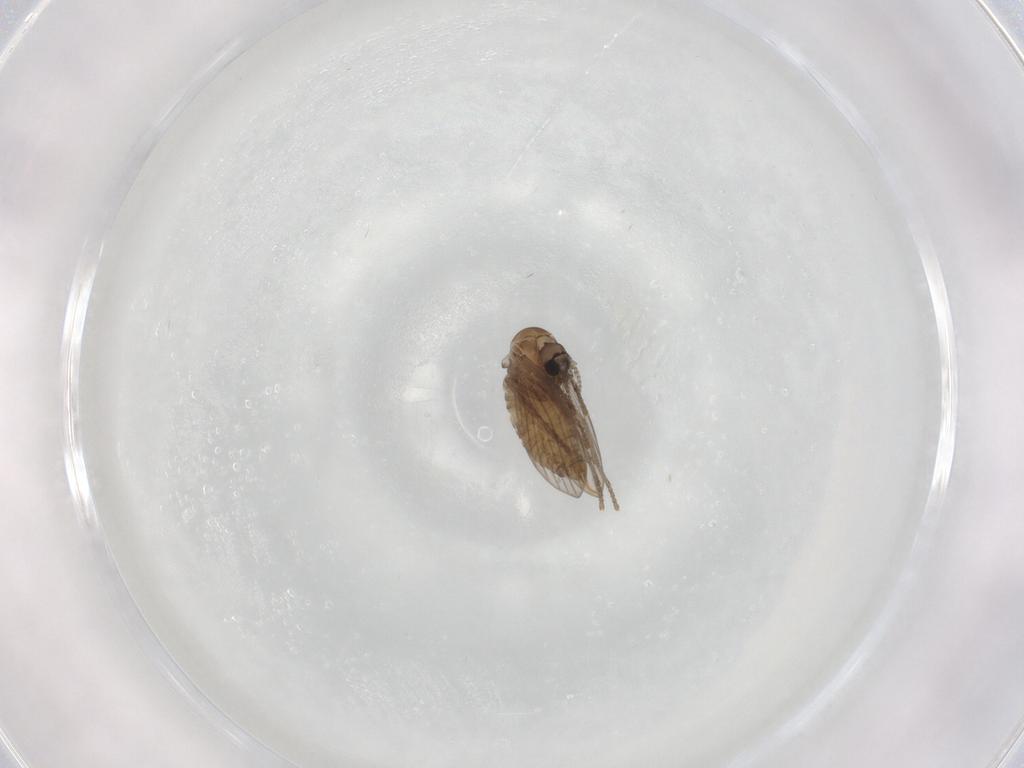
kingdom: Animalia
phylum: Arthropoda
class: Insecta
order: Diptera
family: Psychodidae
